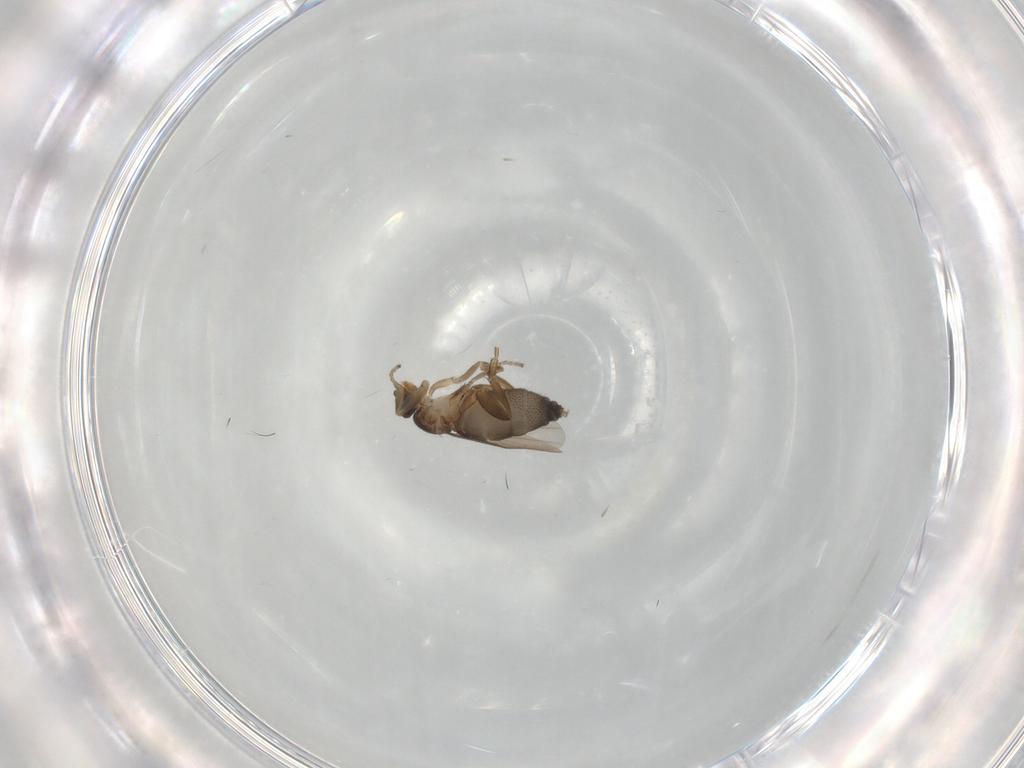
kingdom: Animalia
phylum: Arthropoda
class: Insecta
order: Diptera
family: Phoridae
